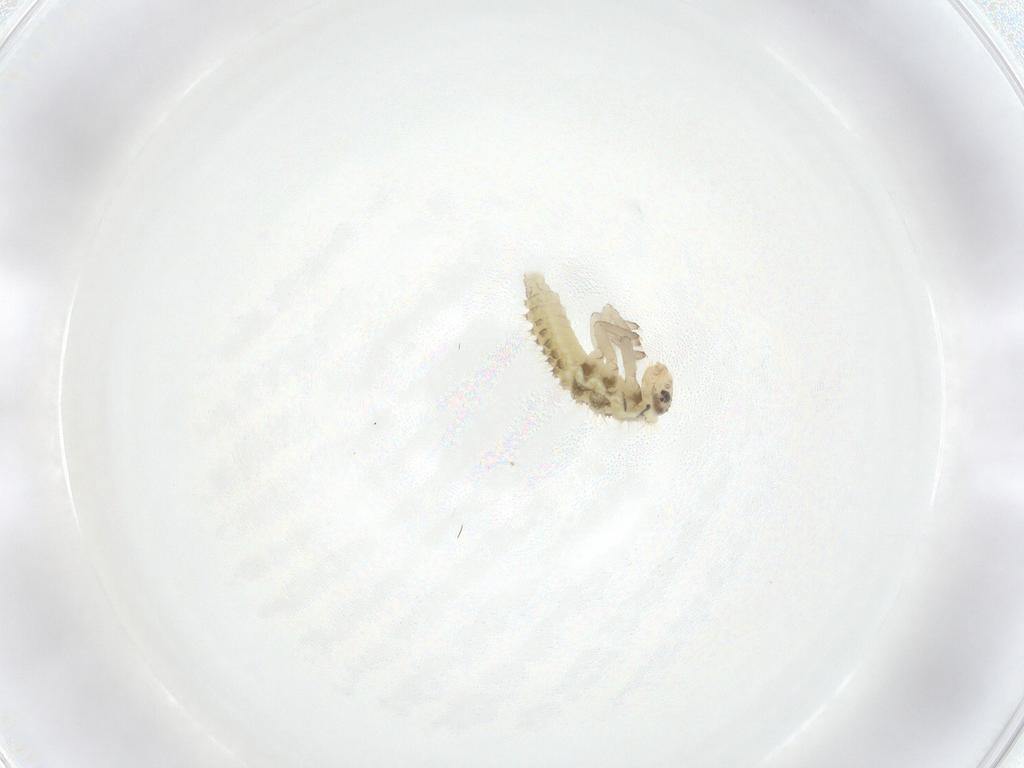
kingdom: Animalia
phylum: Arthropoda
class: Insecta
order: Coleoptera
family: Coccinellidae
